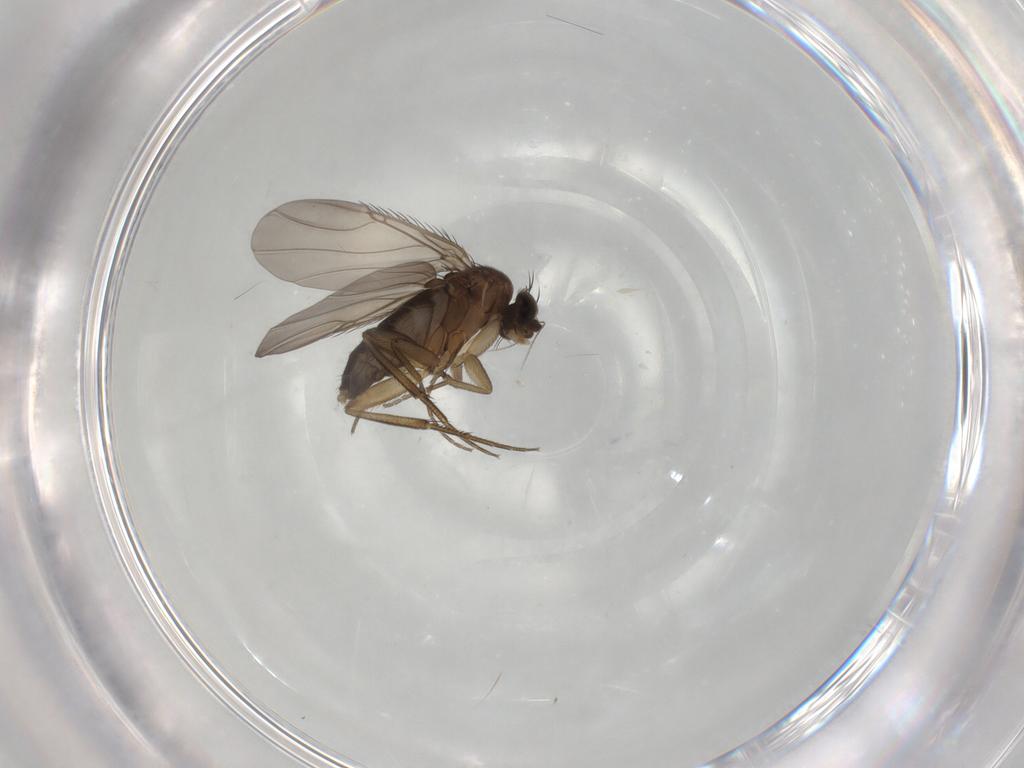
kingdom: Animalia
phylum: Arthropoda
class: Insecta
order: Diptera
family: Phoridae
